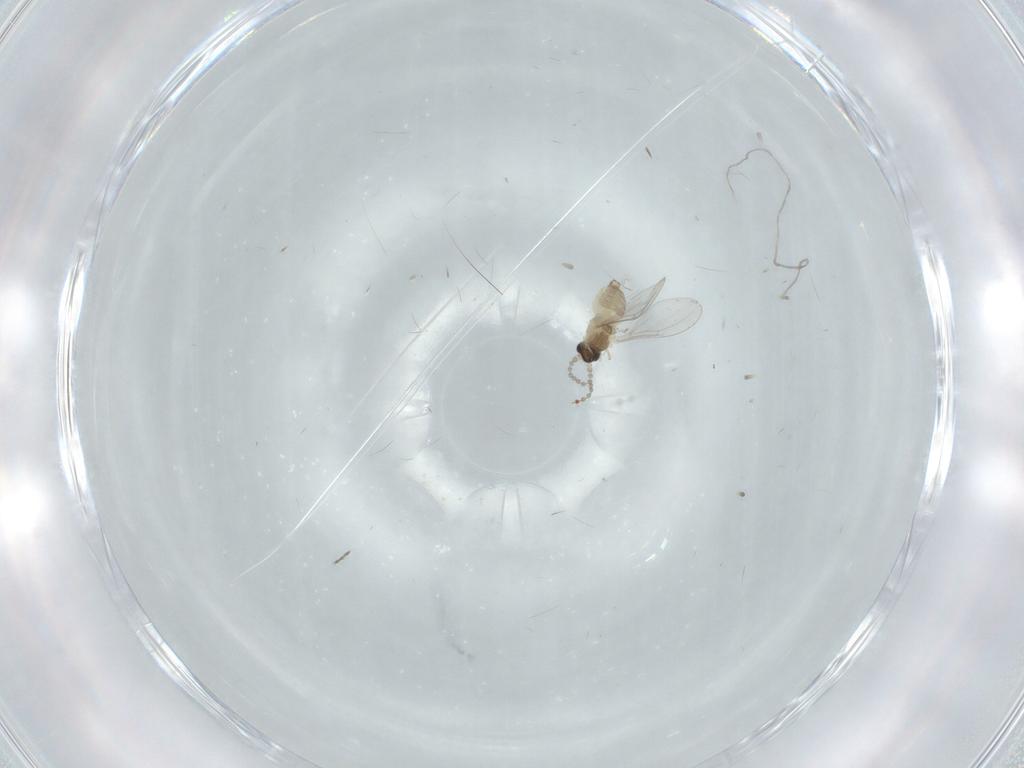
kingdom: Animalia
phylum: Arthropoda
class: Insecta
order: Diptera
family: Cecidomyiidae
